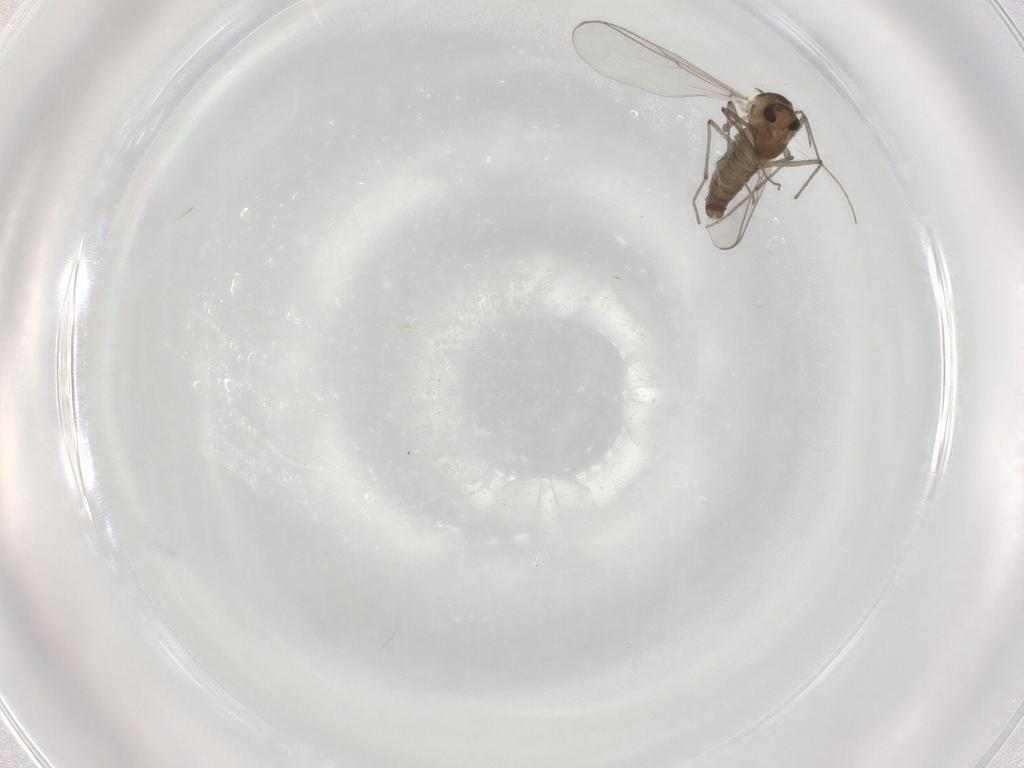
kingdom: Animalia
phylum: Arthropoda
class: Insecta
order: Diptera
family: Chironomidae
